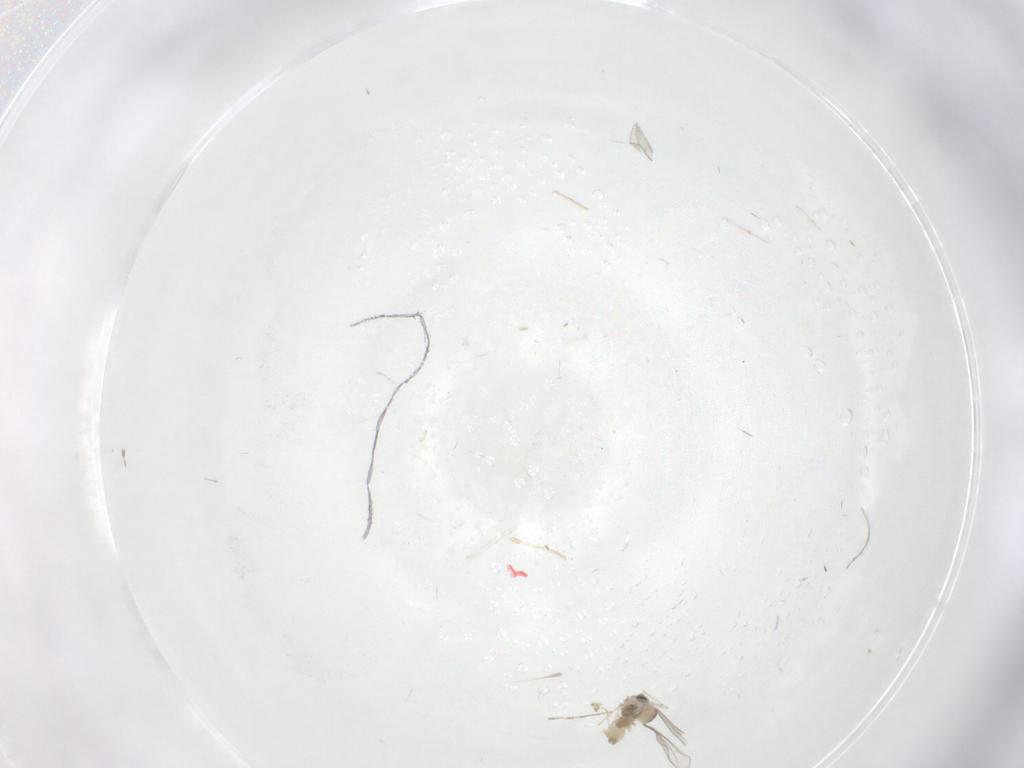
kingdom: Animalia
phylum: Arthropoda
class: Insecta
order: Diptera
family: Cecidomyiidae
